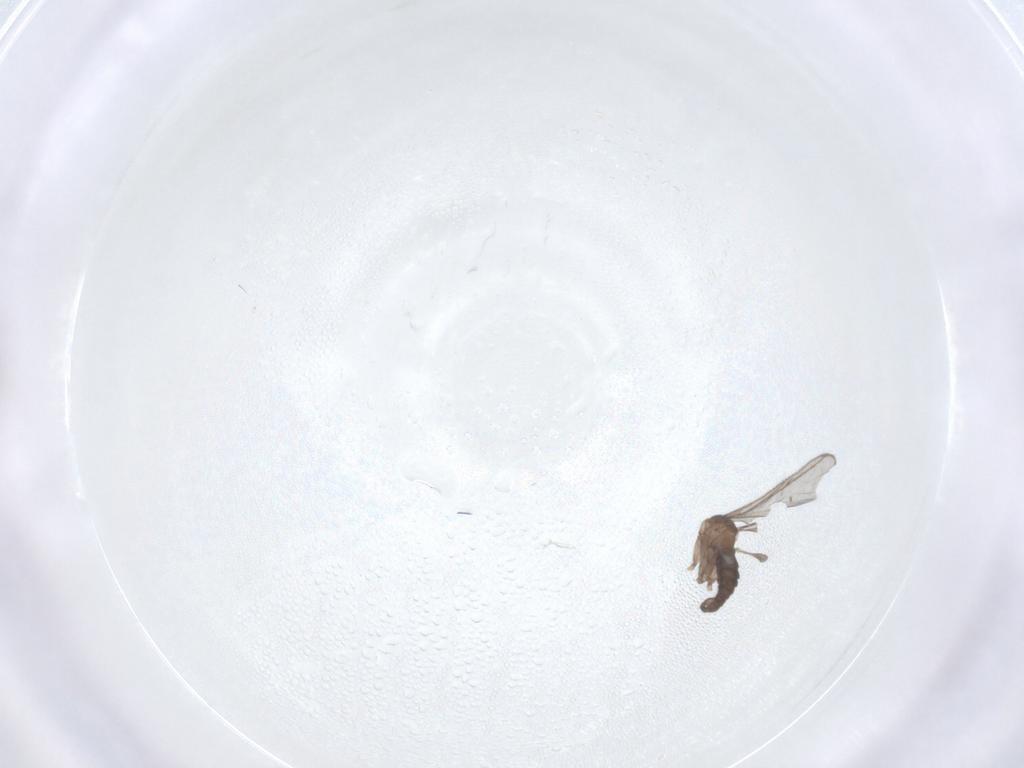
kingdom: Animalia
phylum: Arthropoda
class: Insecta
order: Diptera
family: Sciaridae
